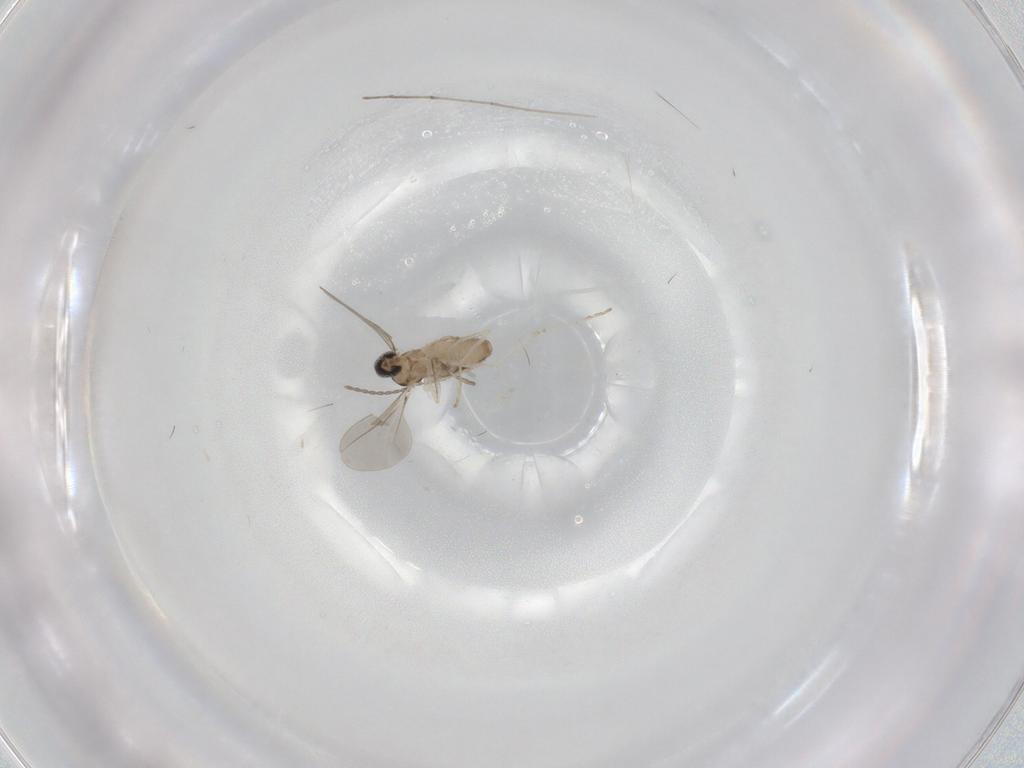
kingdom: Animalia
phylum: Arthropoda
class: Insecta
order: Diptera
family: Cecidomyiidae
